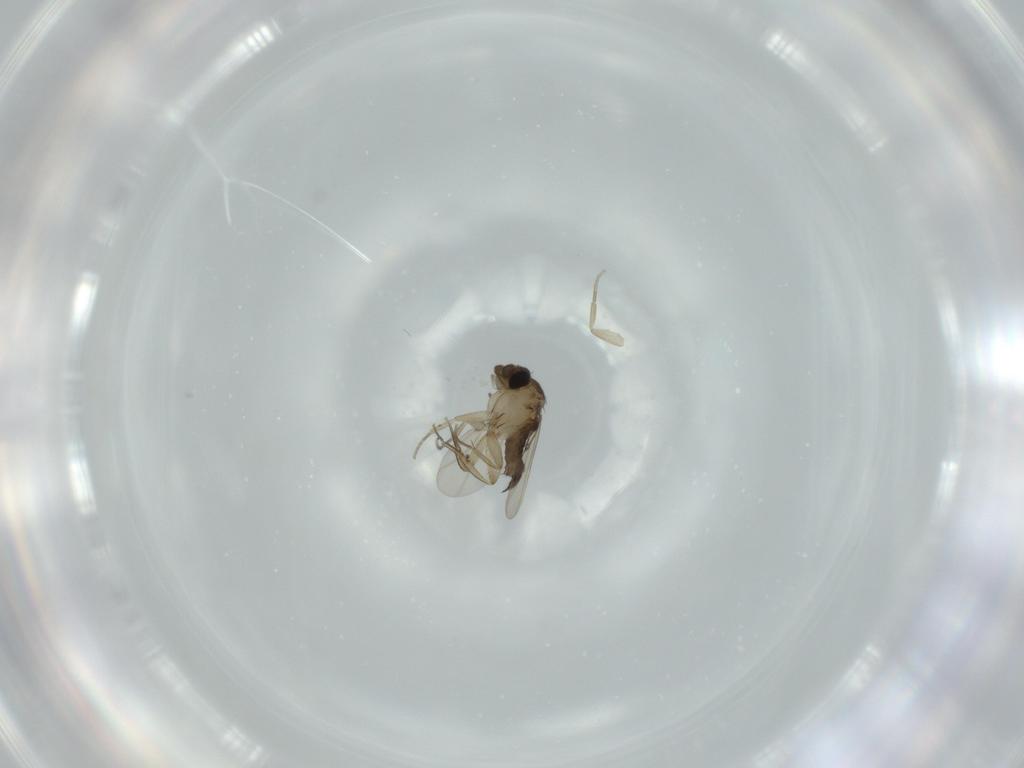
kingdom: Animalia
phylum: Arthropoda
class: Insecta
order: Diptera
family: Phoridae
